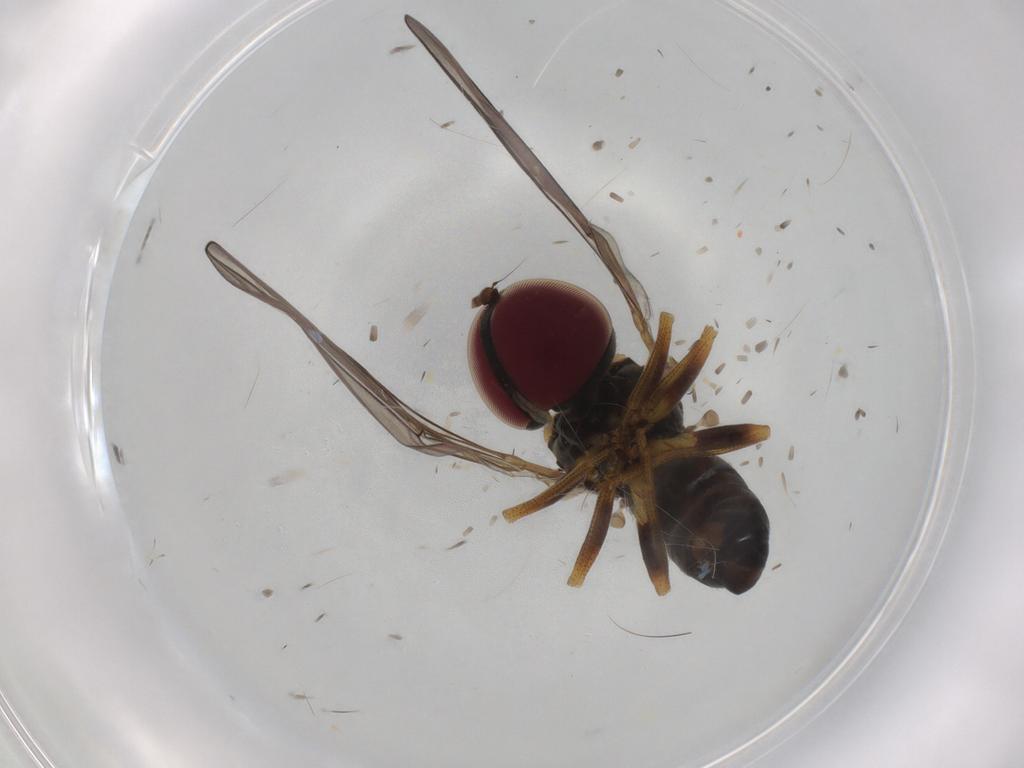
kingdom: Animalia
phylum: Arthropoda
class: Insecta
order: Diptera
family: Pipunculidae
